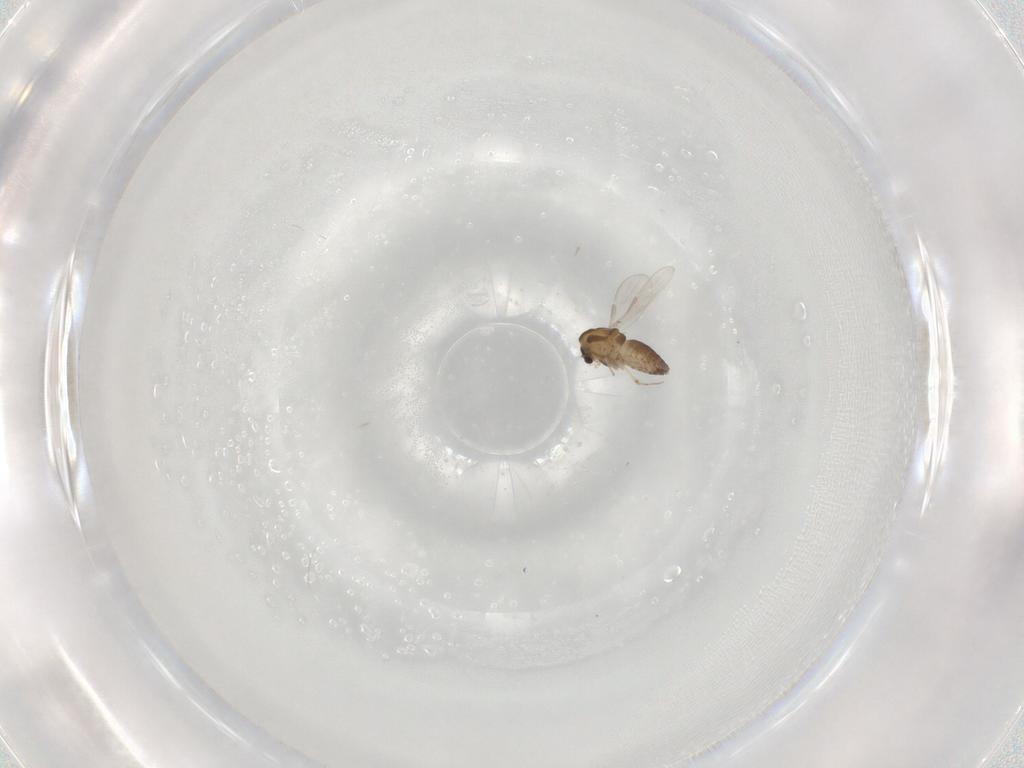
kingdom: Animalia
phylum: Arthropoda
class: Insecta
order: Diptera
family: Chironomidae
